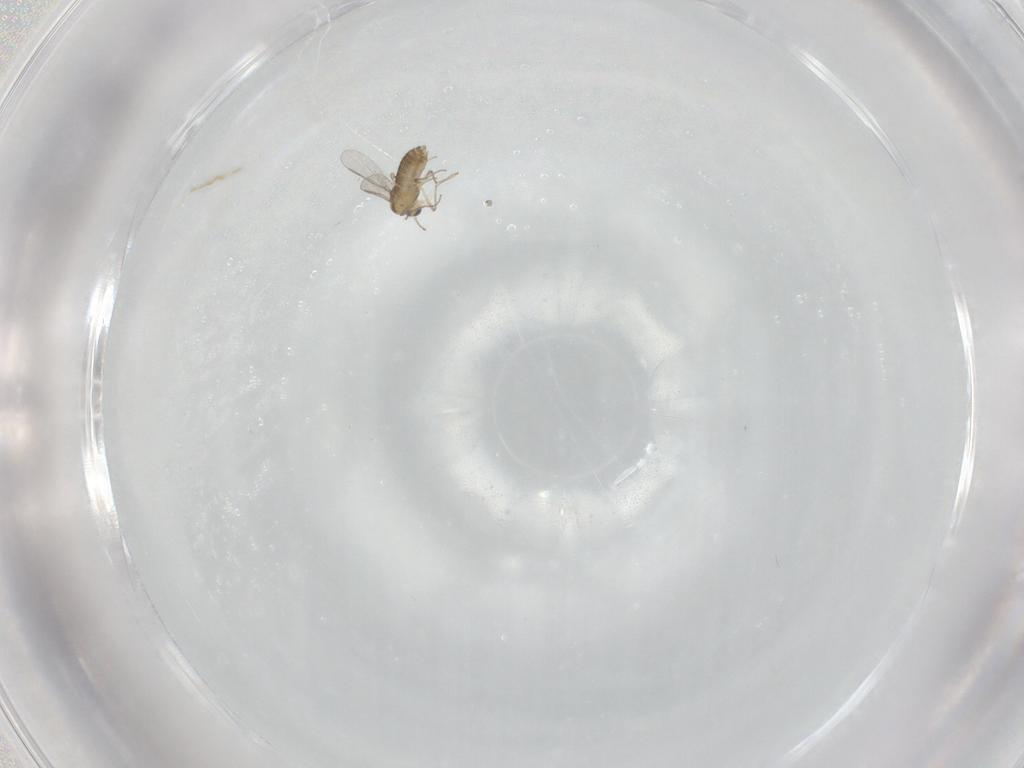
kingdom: Animalia
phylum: Arthropoda
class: Insecta
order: Diptera
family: Chironomidae
